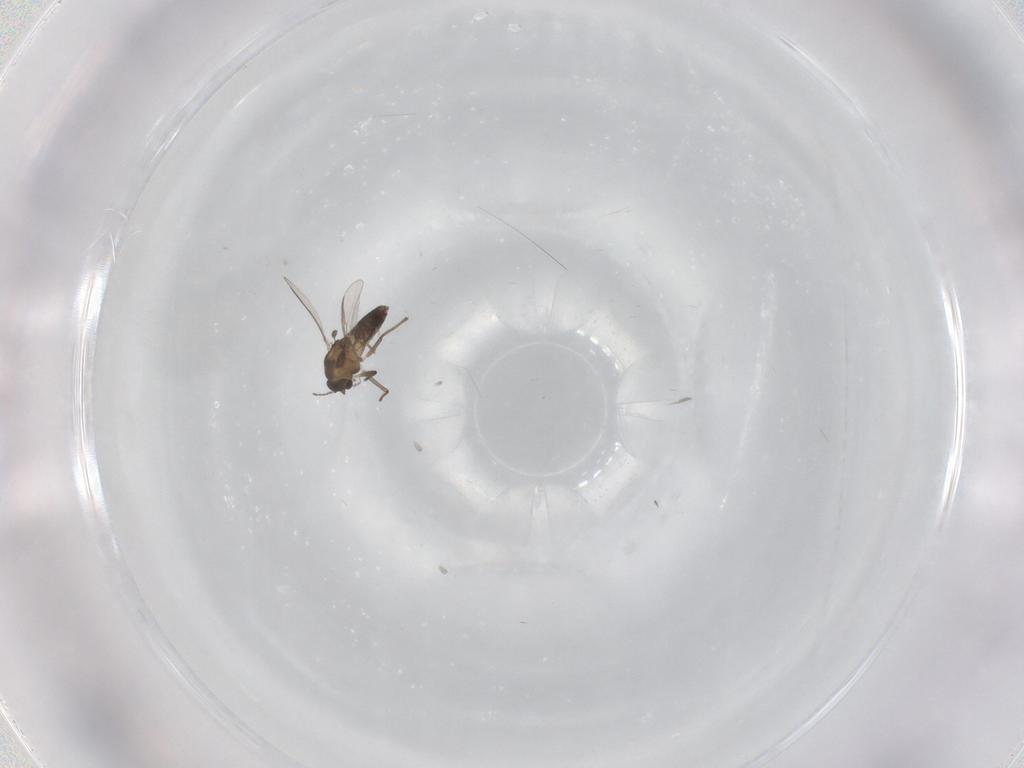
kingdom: Animalia
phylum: Arthropoda
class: Insecta
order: Diptera
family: Chironomidae
